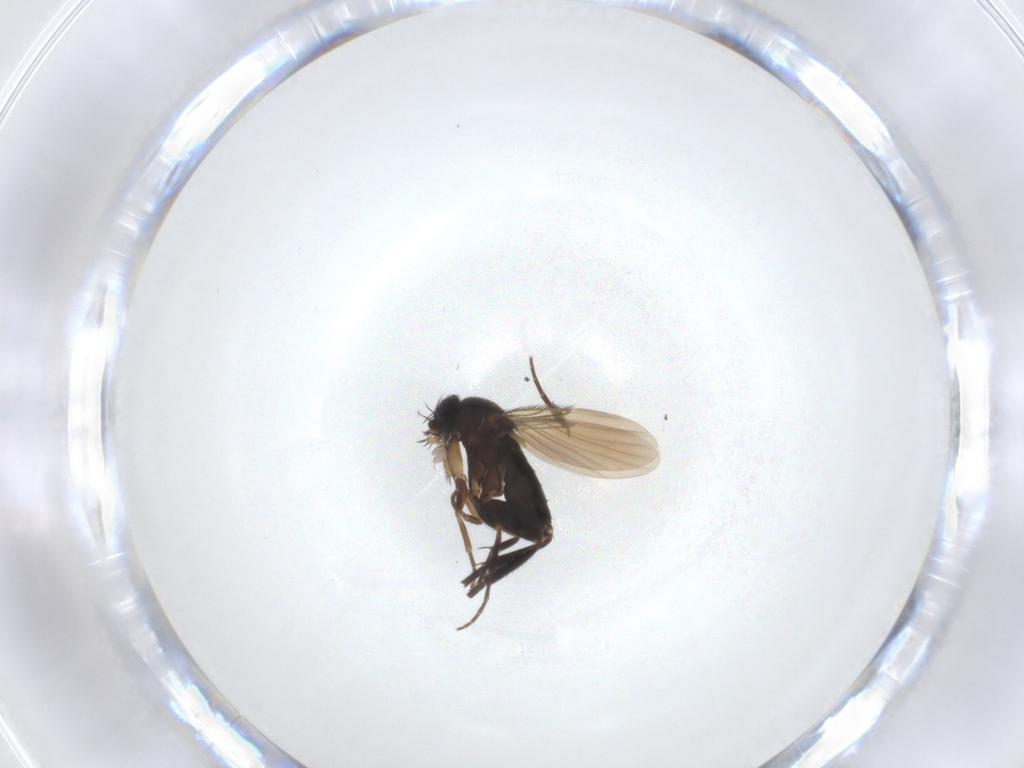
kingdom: Animalia
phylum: Arthropoda
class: Insecta
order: Diptera
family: Phoridae
